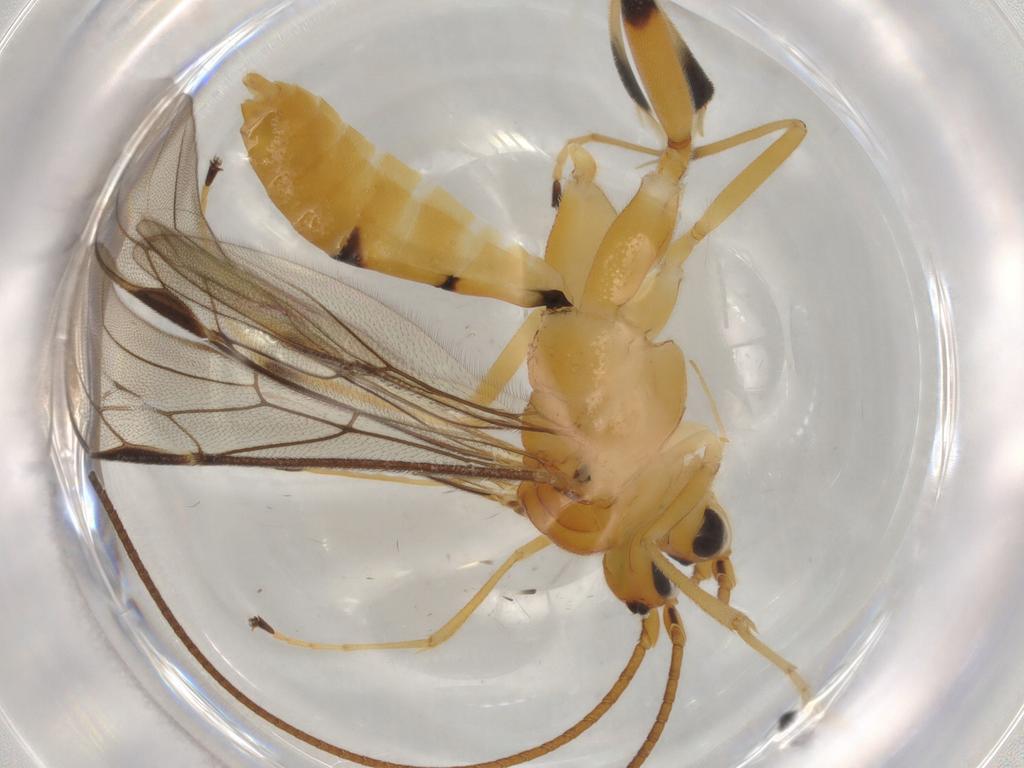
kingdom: Animalia
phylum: Arthropoda
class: Insecta
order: Hymenoptera
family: Braconidae
